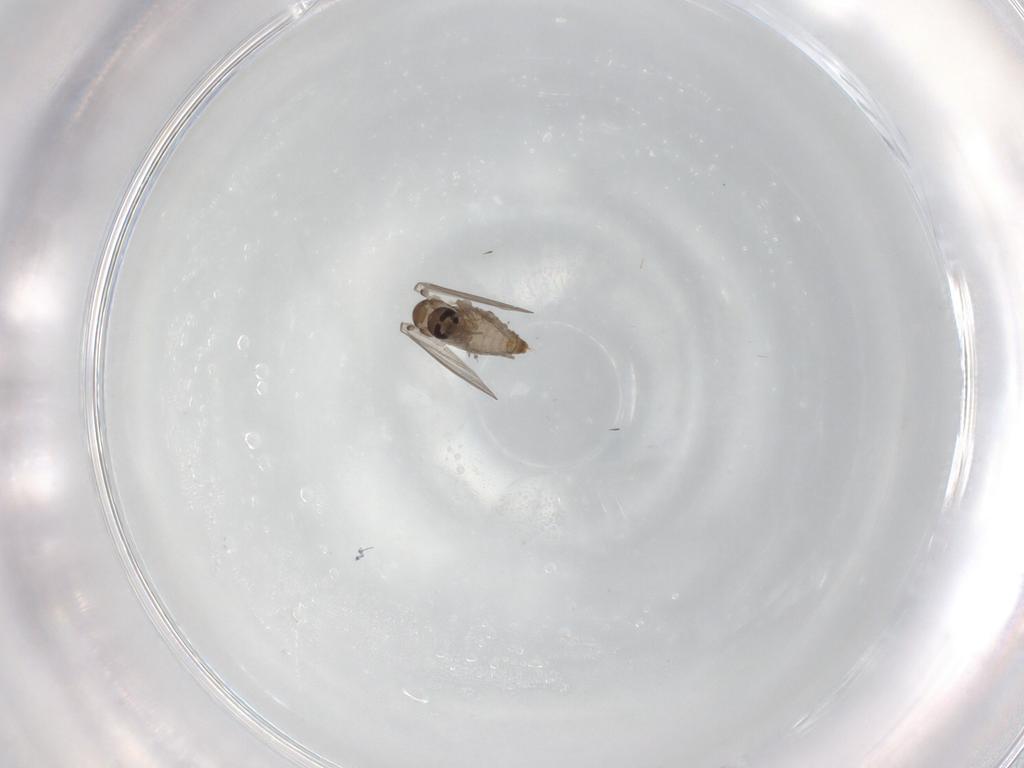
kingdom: Animalia
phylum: Arthropoda
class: Insecta
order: Diptera
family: Psychodidae
